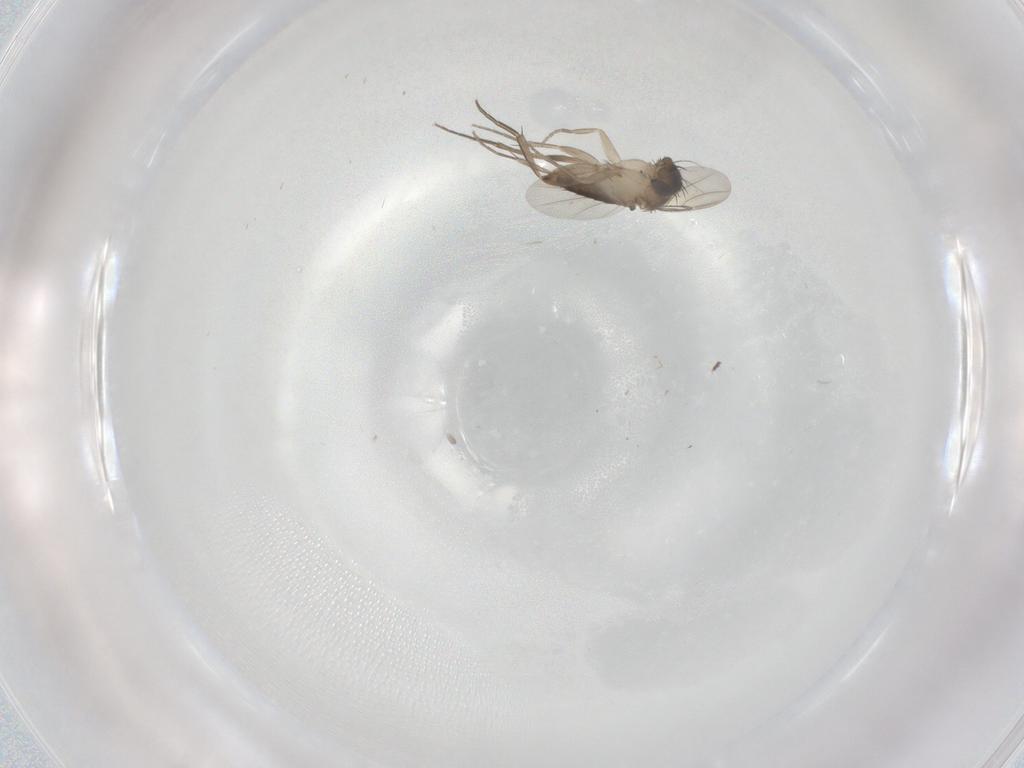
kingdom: Animalia
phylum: Arthropoda
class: Insecta
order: Diptera
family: Phoridae
